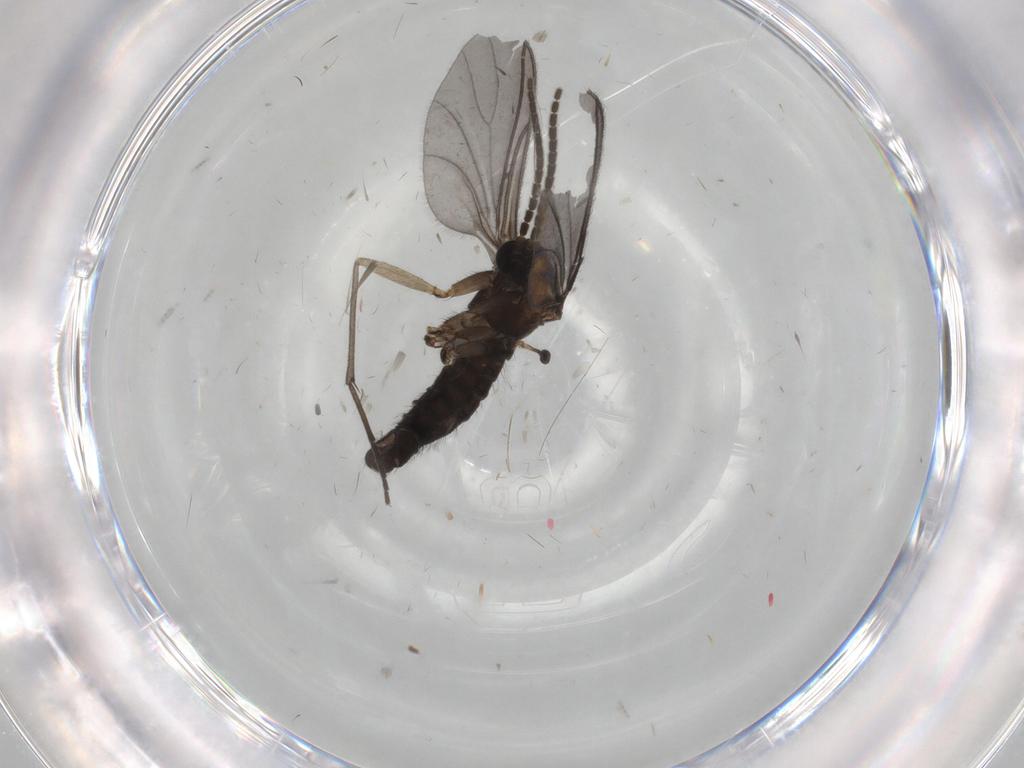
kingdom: Animalia
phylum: Arthropoda
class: Insecta
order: Diptera
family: Sciaridae
